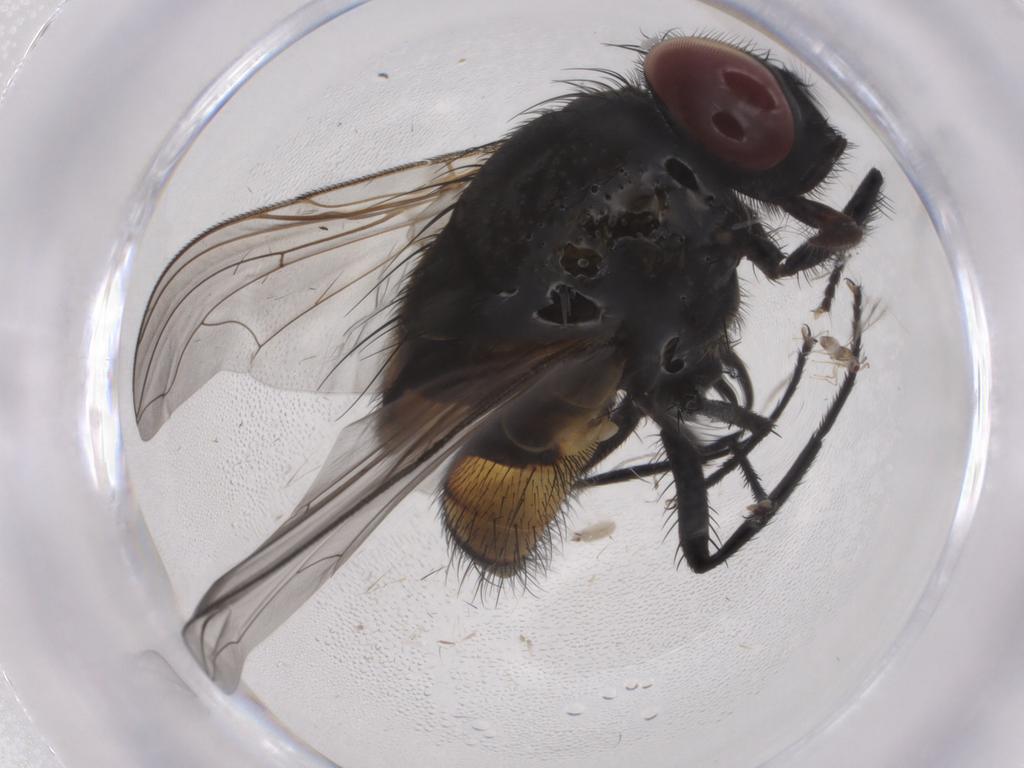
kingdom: Animalia
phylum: Arthropoda
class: Insecta
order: Diptera
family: Muscidae
